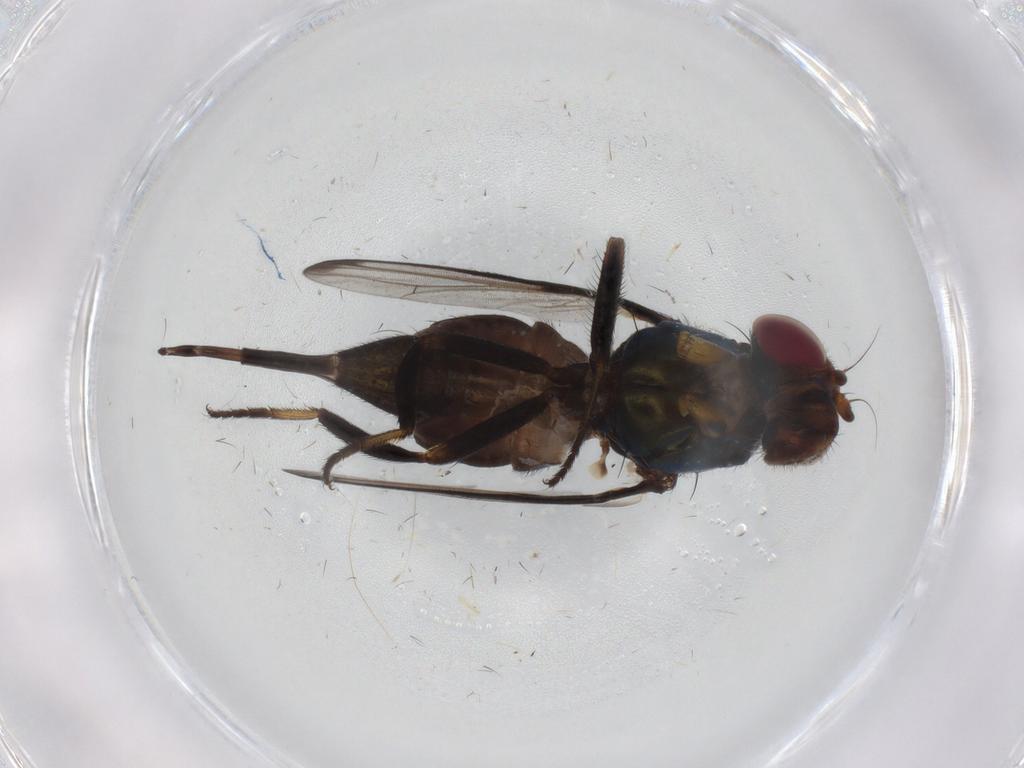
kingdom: Animalia
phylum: Arthropoda
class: Insecta
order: Diptera
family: Ulidiidae
